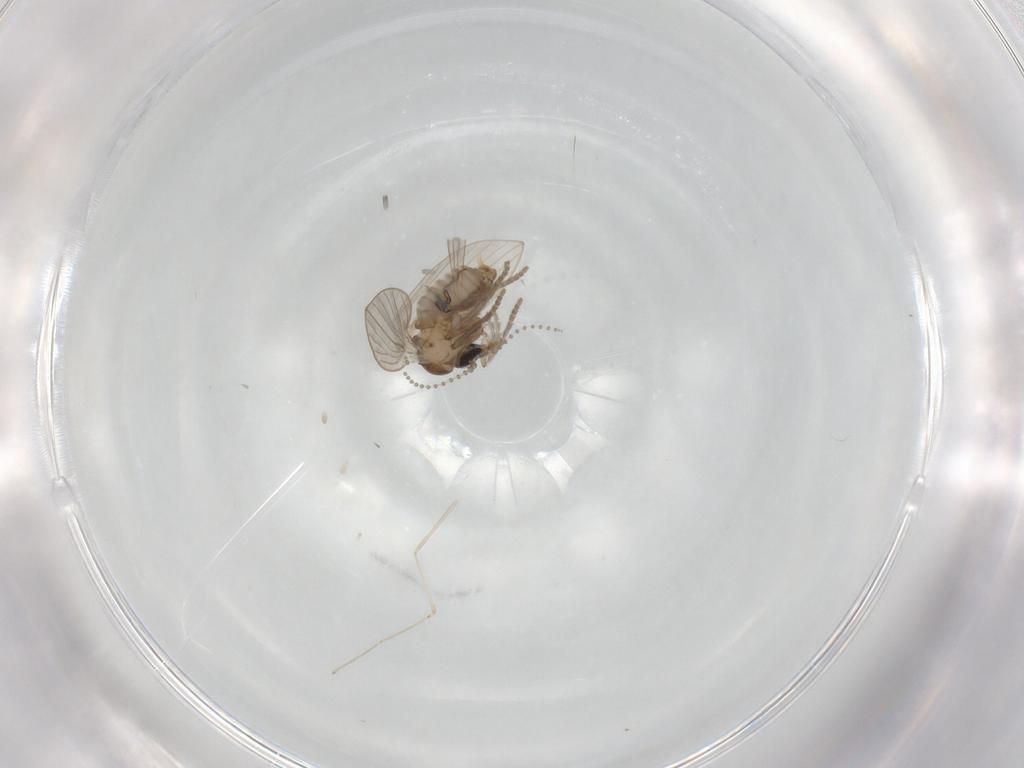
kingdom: Animalia
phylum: Arthropoda
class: Insecta
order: Diptera
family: Psychodidae
